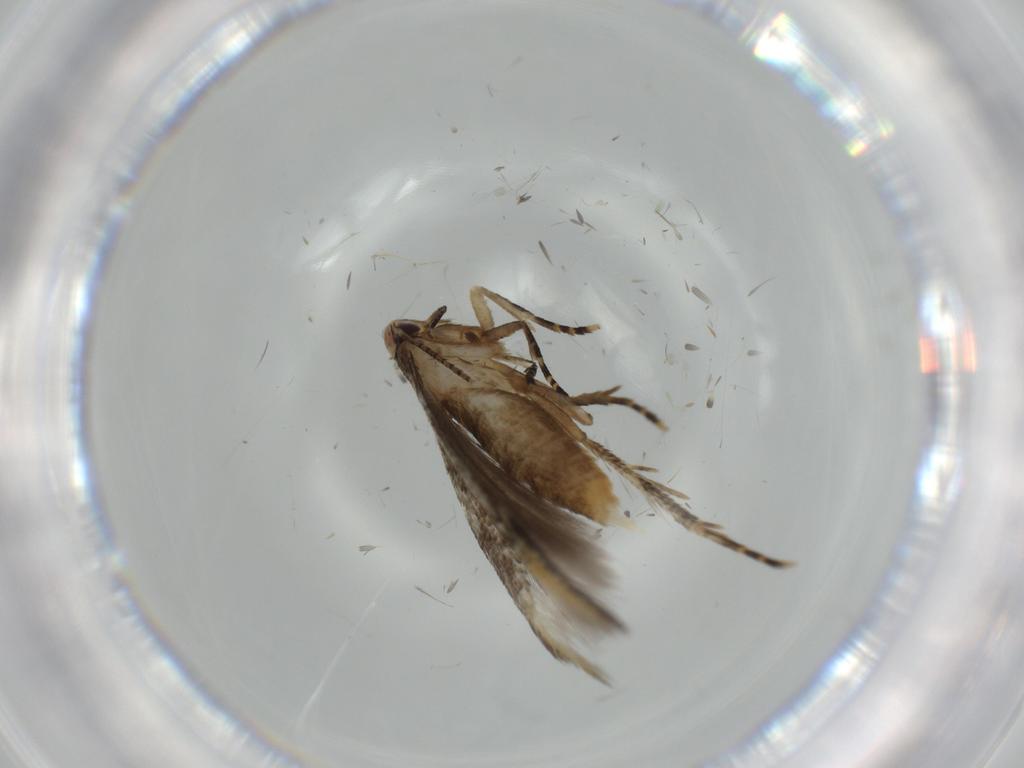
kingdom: Animalia
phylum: Arthropoda
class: Insecta
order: Lepidoptera
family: Stathmopodidae
